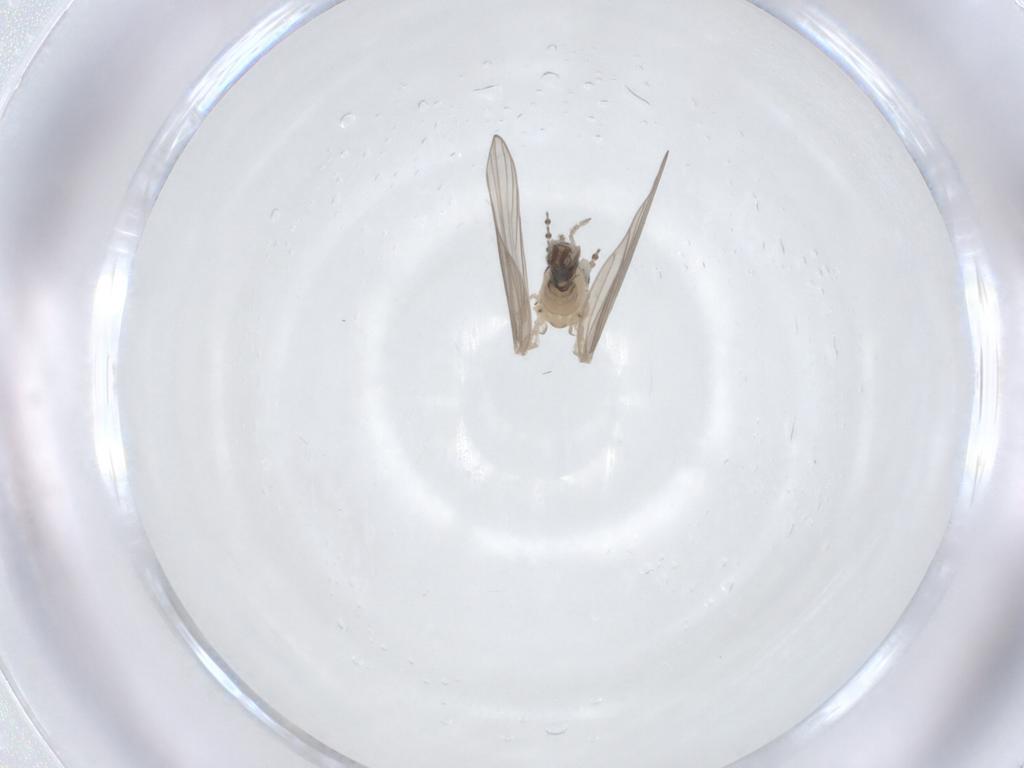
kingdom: Animalia
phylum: Arthropoda
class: Insecta
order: Diptera
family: Psychodidae
